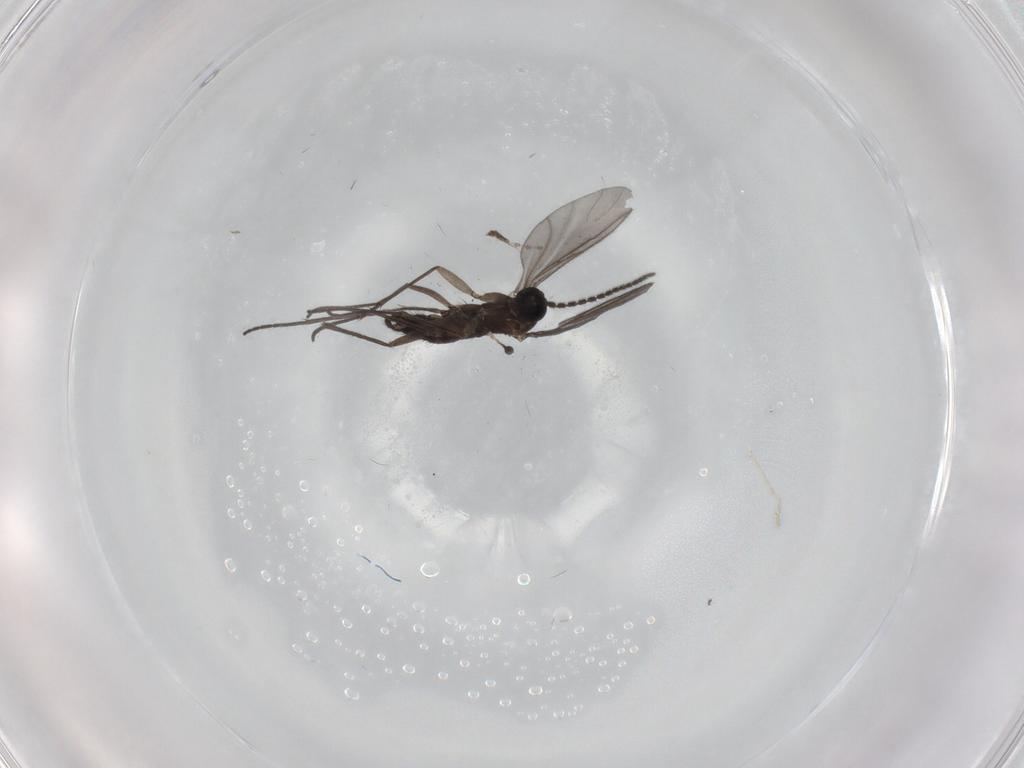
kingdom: Animalia
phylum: Arthropoda
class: Insecta
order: Diptera
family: Sciaridae
